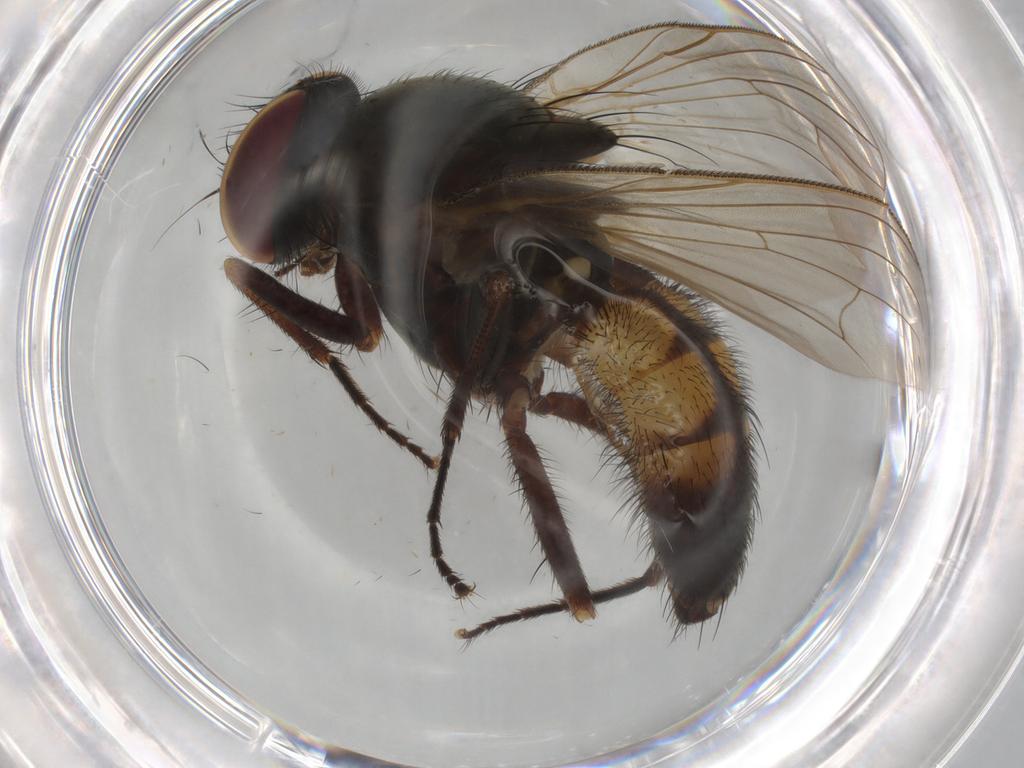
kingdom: Animalia
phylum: Arthropoda
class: Insecta
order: Diptera
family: Fannia
